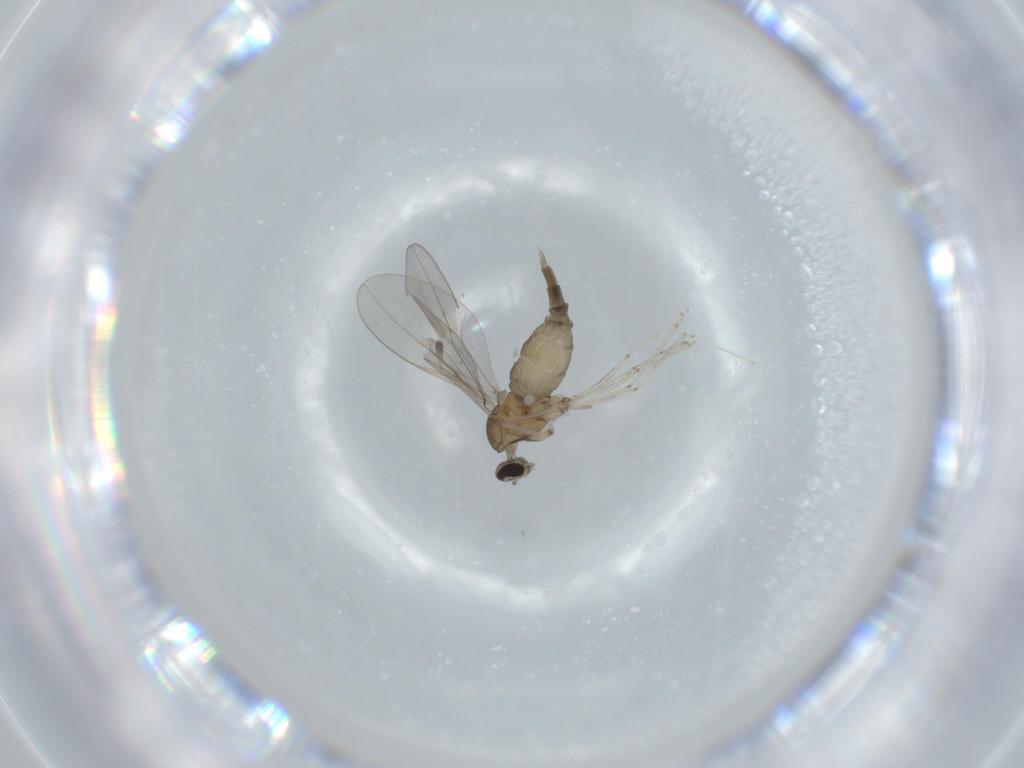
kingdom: Animalia
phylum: Arthropoda
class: Insecta
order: Diptera
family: Cecidomyiidae
